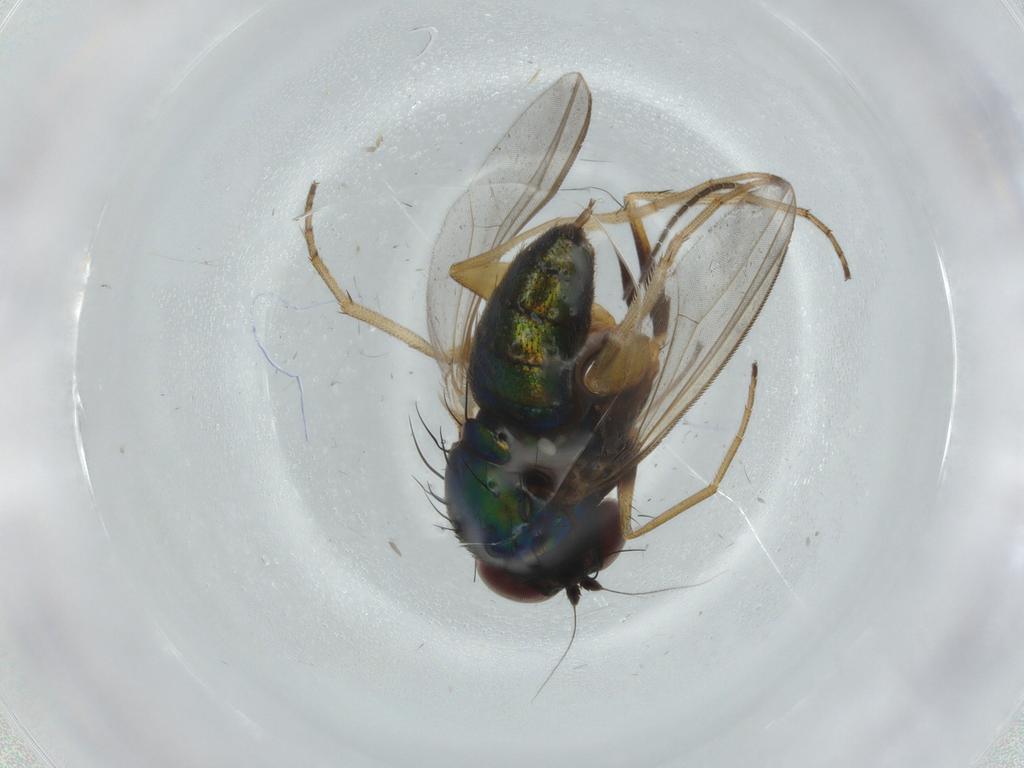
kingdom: Animalia
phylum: Arthropoda
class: Insecta
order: Diptera
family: Dolichopodidae
